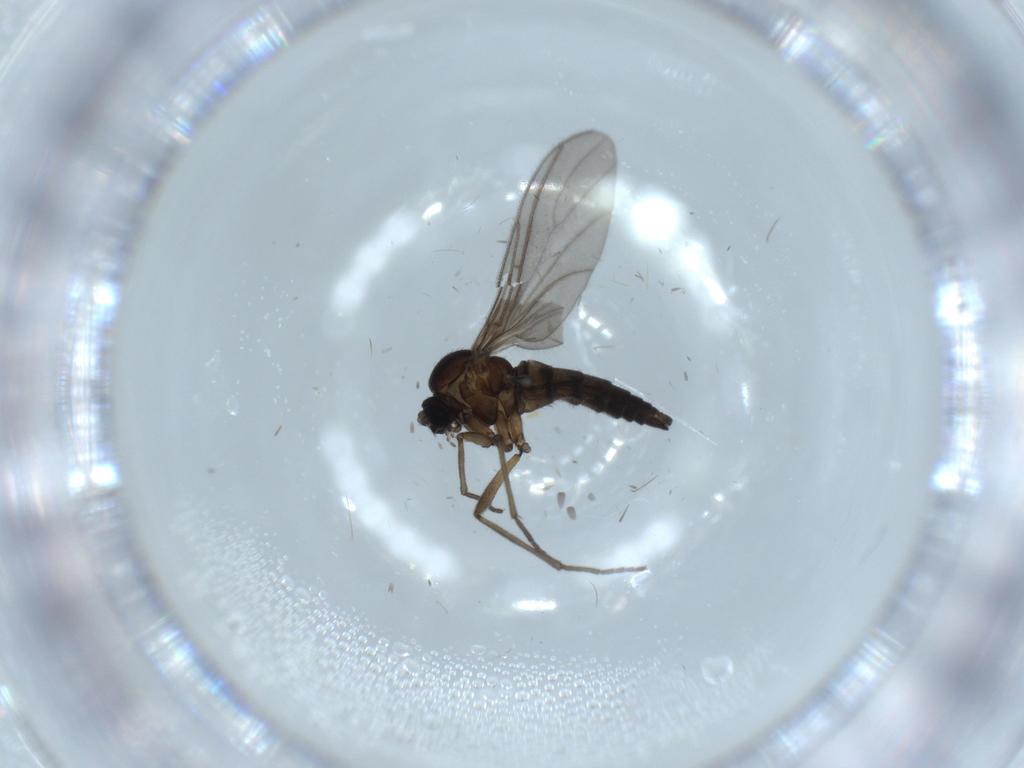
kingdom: Animalia
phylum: Arthropoda
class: Insecta
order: Diptera
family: Sciaridae
